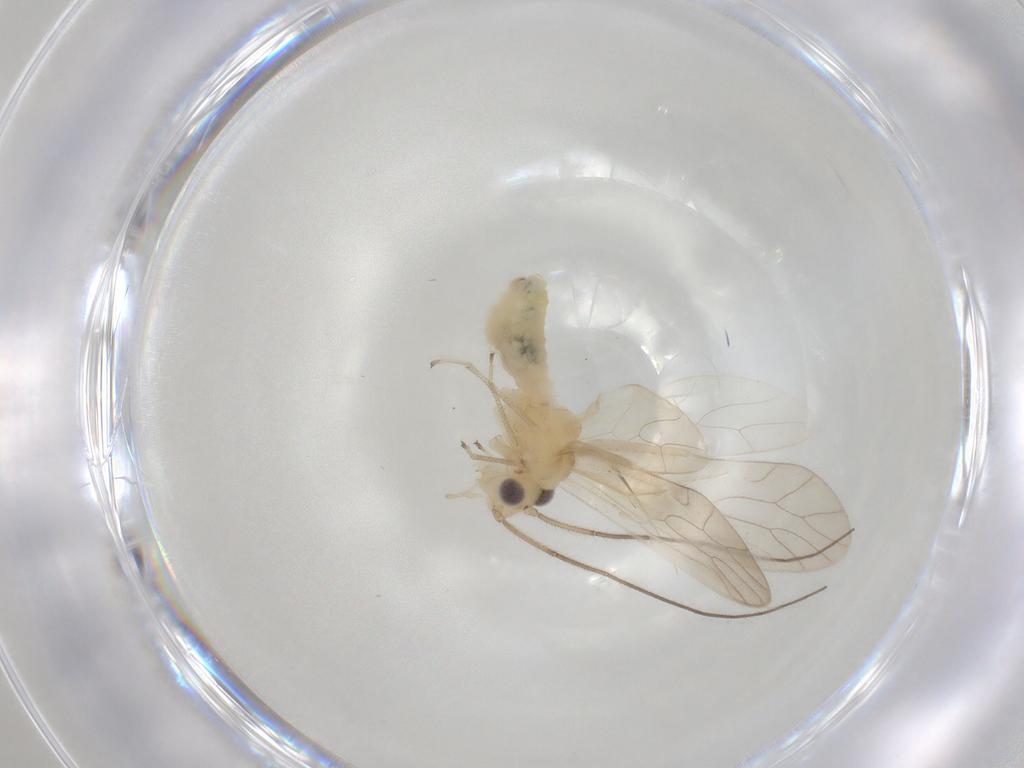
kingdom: Animalia
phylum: Arthropoda
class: Insecta
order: Psocodea
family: Caeciliusidae
